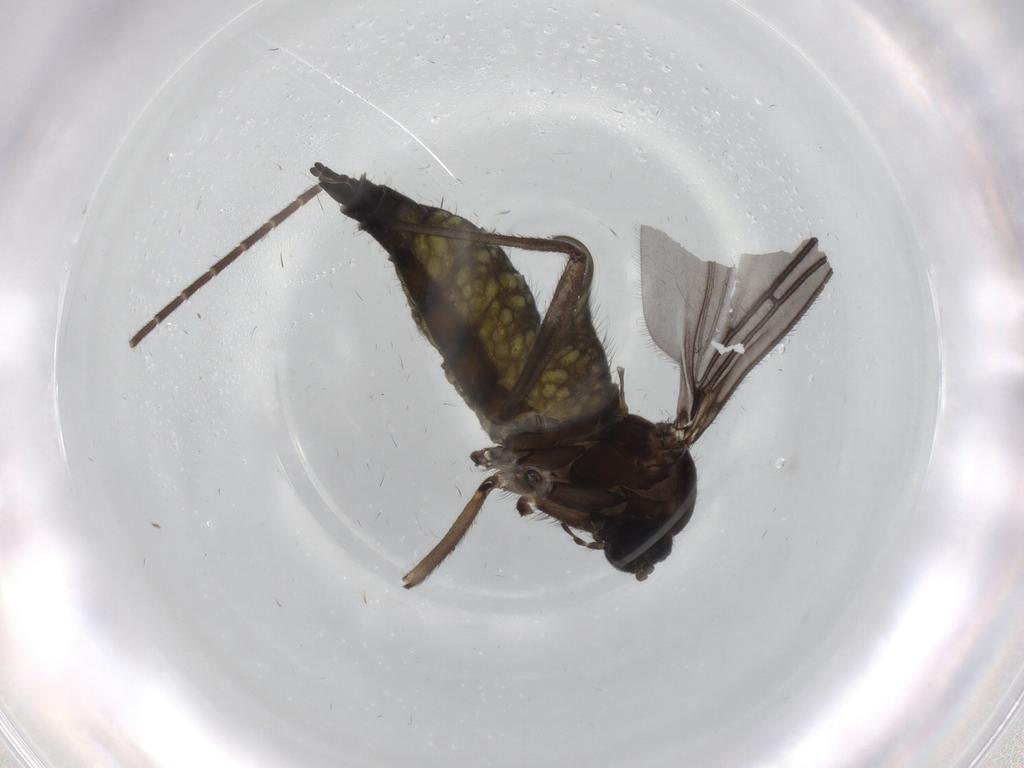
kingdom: Animalia
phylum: Arthropoda
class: Insecta
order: Diptera
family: Sciaridae
